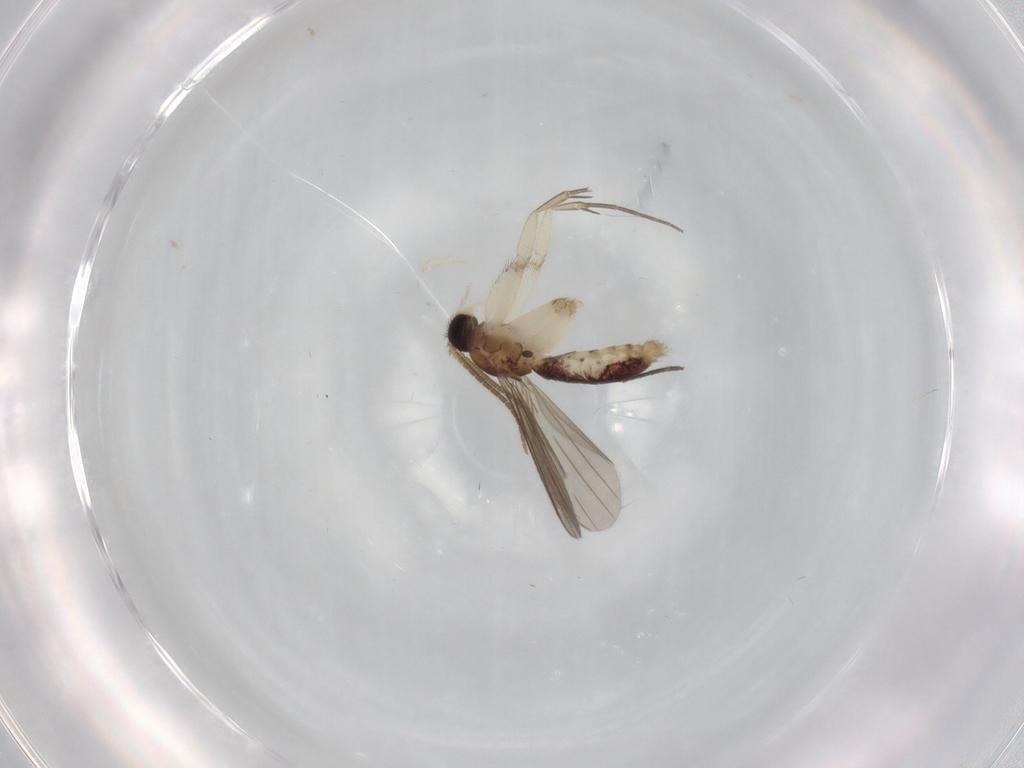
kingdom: Animalia
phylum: Arthropoda
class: Insecta
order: Diptera
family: Mycetophilidae
